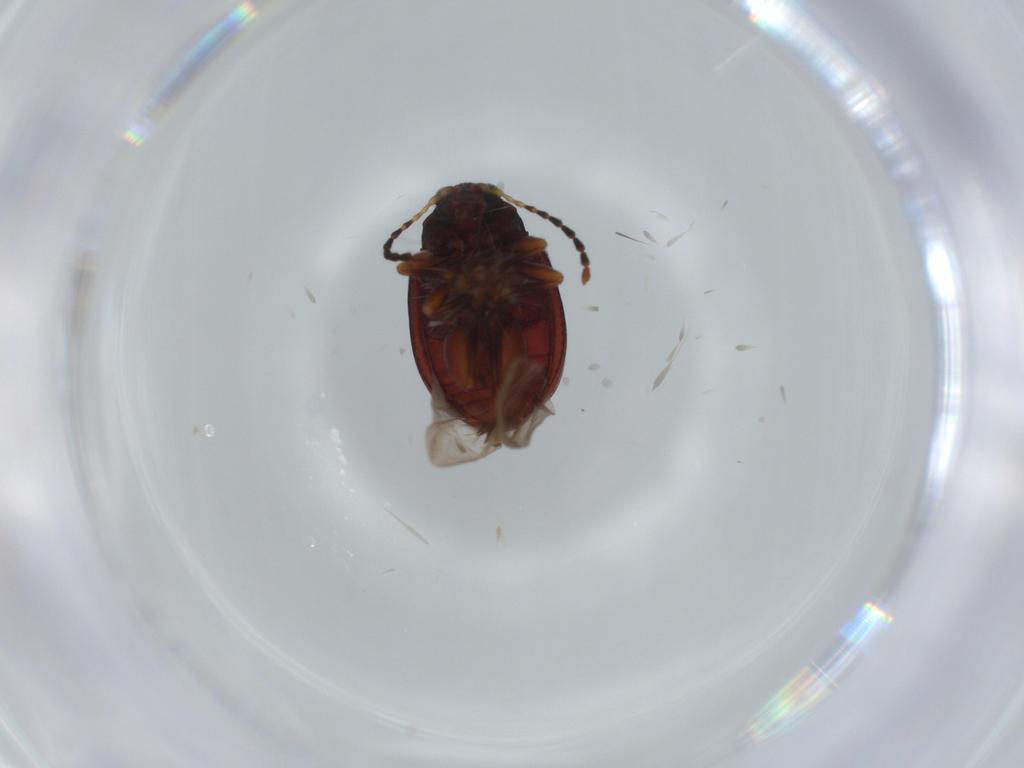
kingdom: Animalia
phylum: Arthropoda
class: Insecta
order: Coleoptera
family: Chrysomelidae
